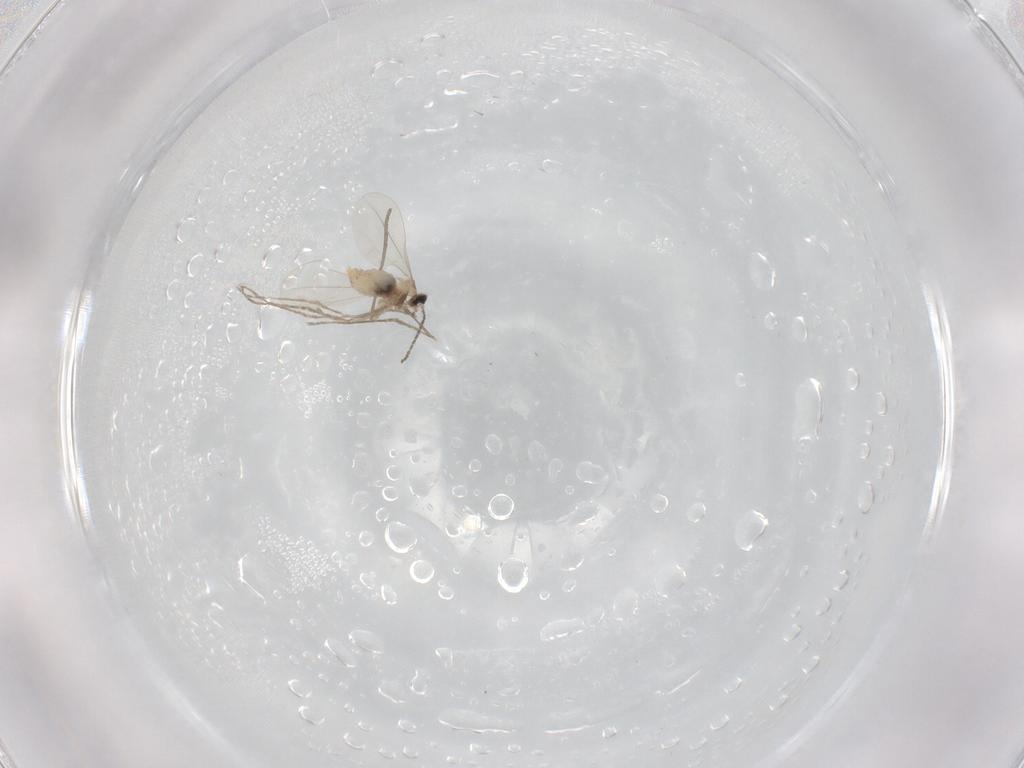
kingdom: Animalia
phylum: Arthropoda
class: Insecta
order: Diptera
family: Cecidomyiidae
